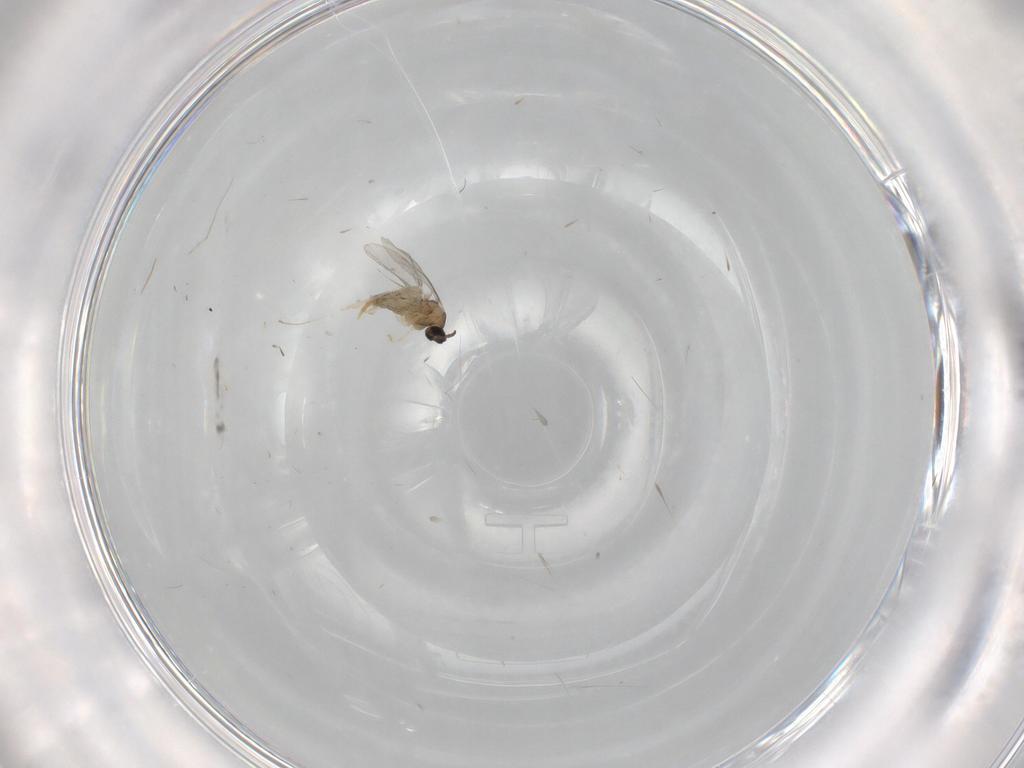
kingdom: Animalia
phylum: Arthropoda
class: Insecta
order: Diptera
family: Cecidomyiidae
